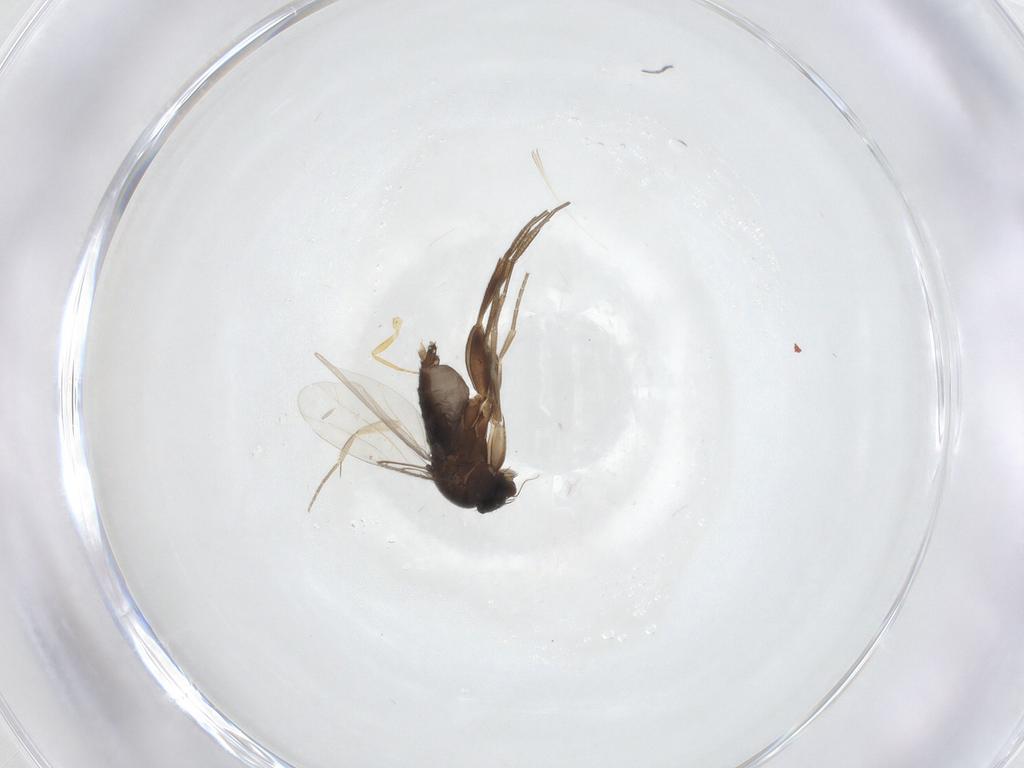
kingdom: Animalia
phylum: Arthropoda
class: Insecta
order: Diptera
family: Phoridae
